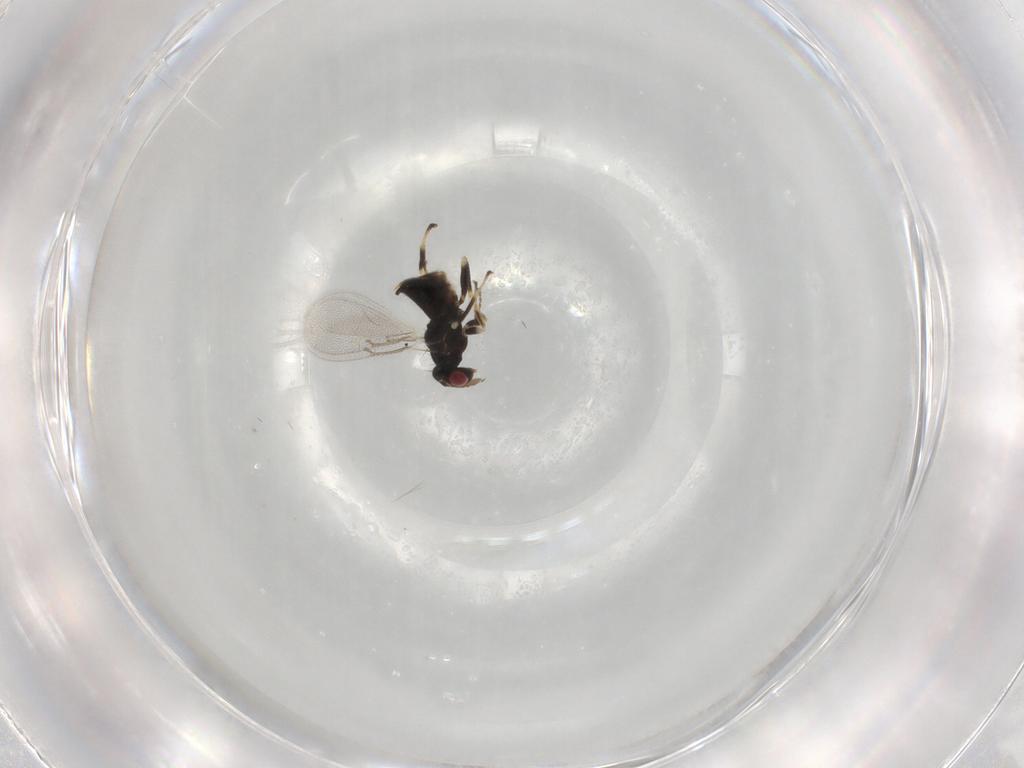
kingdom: Animalia
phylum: Arthropoda
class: Insecta
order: Hymenoptera
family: Eulophidae
